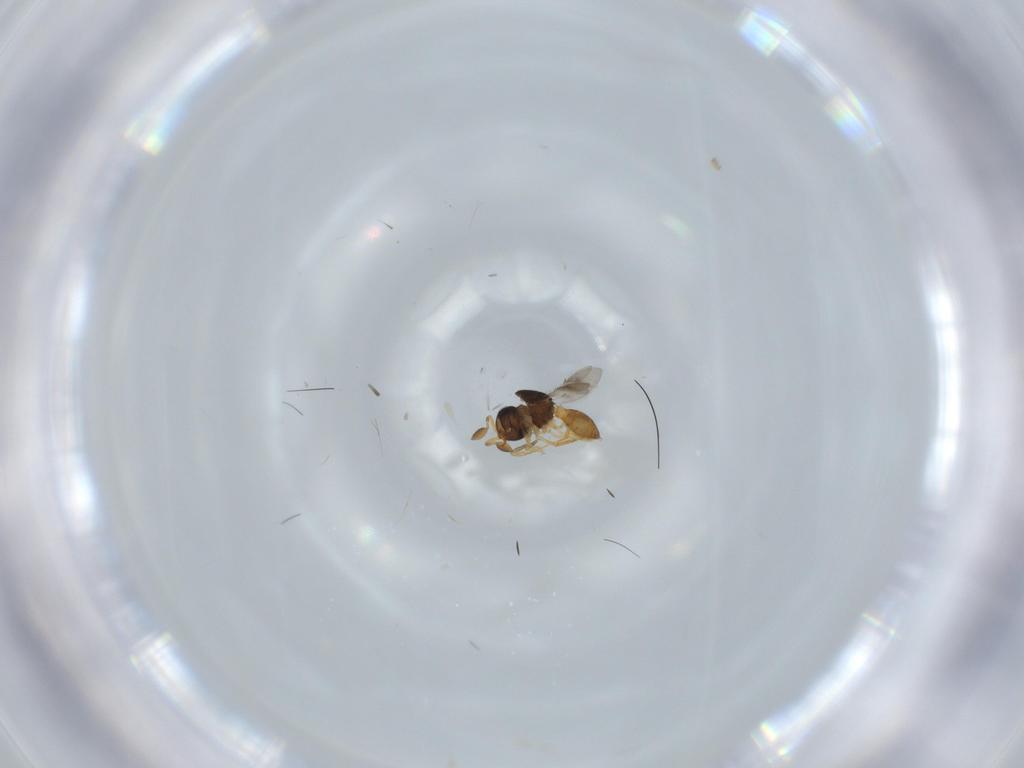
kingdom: Animalia
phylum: Arthropoda
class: Insecta
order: Hymenoptera
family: Scelionidae
